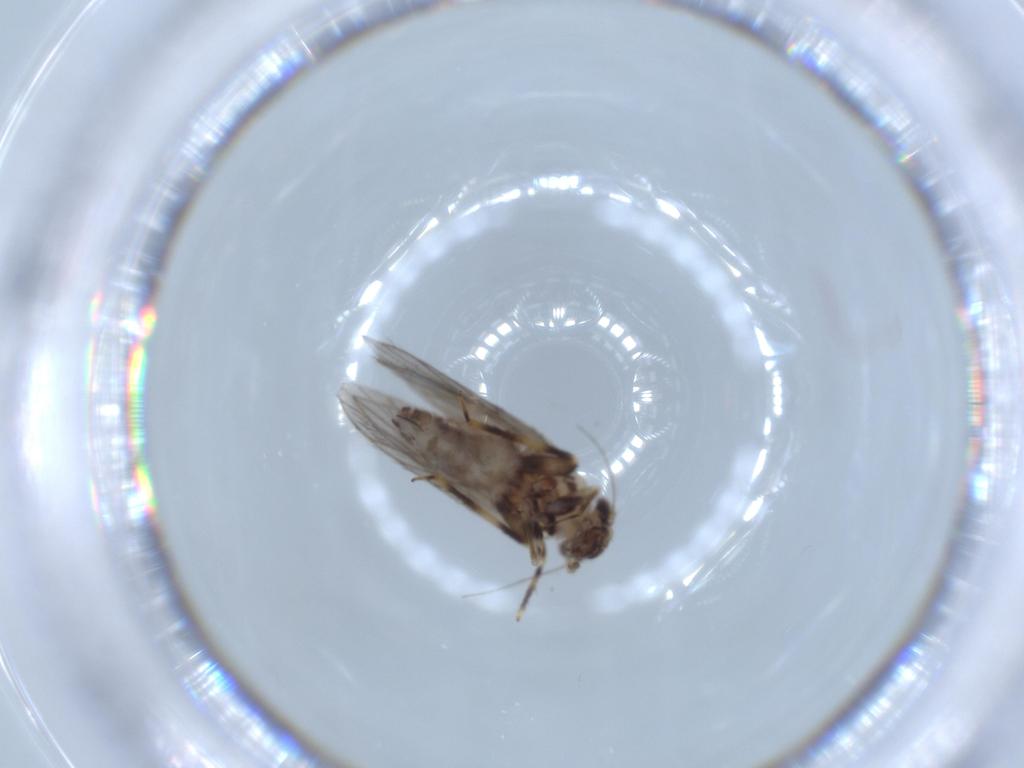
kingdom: Animalia
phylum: Arthropoda
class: Insecta
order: Psocodea
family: Lepidopsocidae
